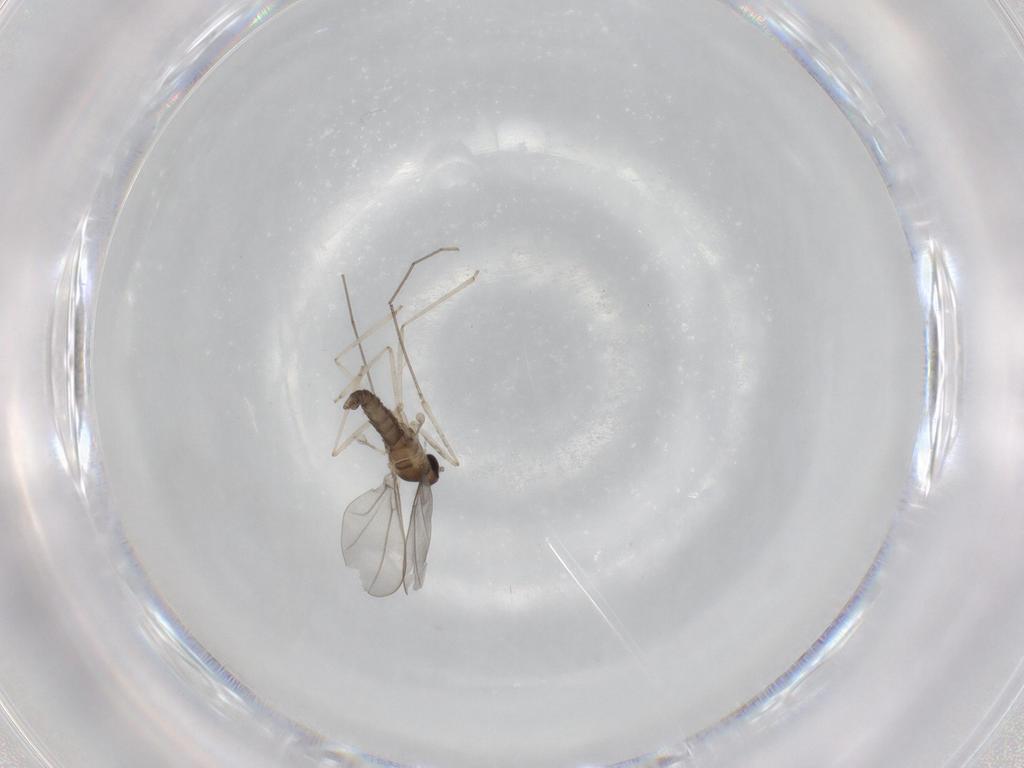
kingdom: Animalia
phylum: Arthropoda
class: Insecta
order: Diptera
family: Cecidomyiidae
